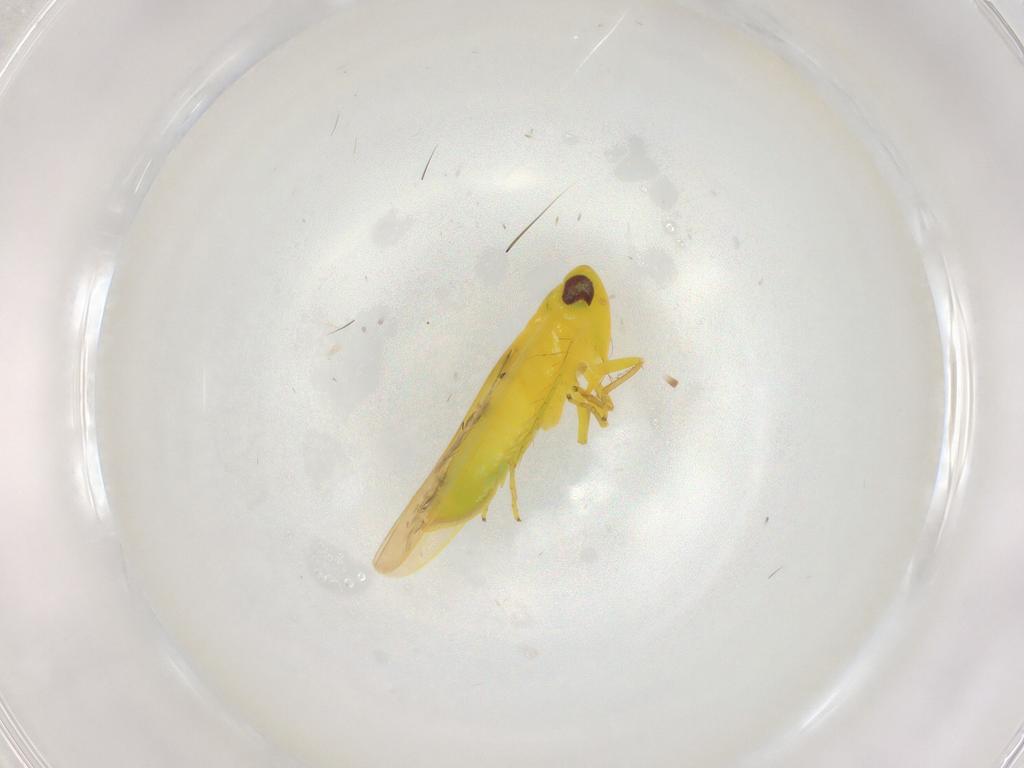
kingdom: Animalia
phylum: Arthropoda
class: Insecta
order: Hemiptera
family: Cicadellidae
